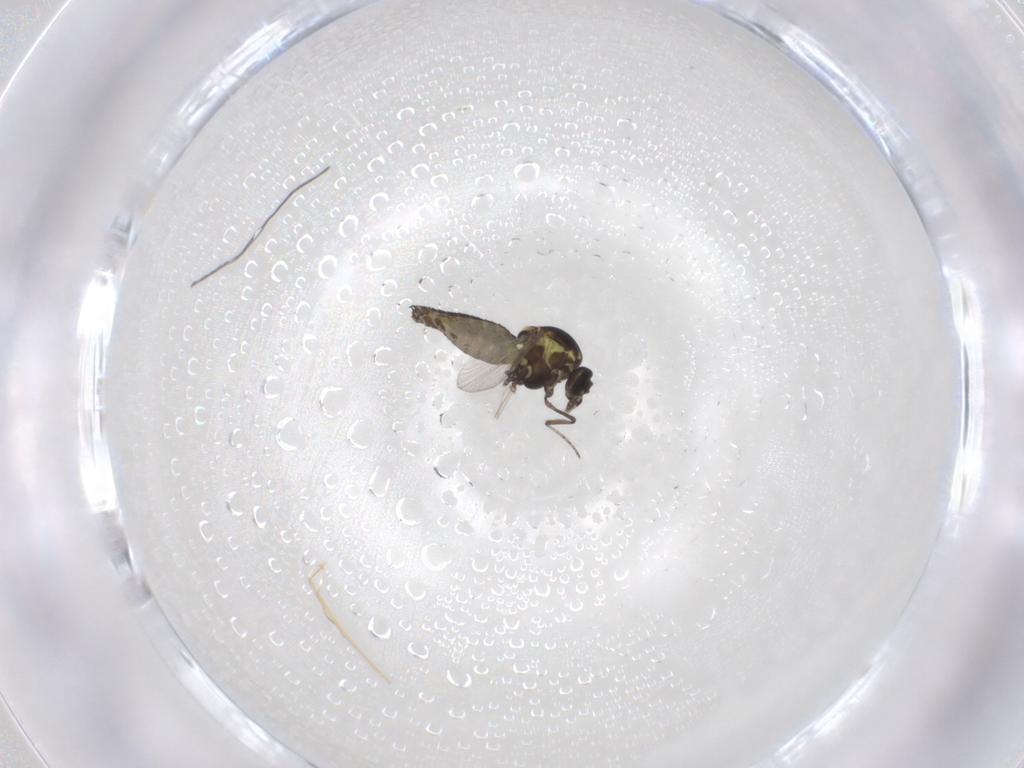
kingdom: Animalia
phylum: Arthropoda
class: Insecta
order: Diptera
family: Ceratopogonidae
